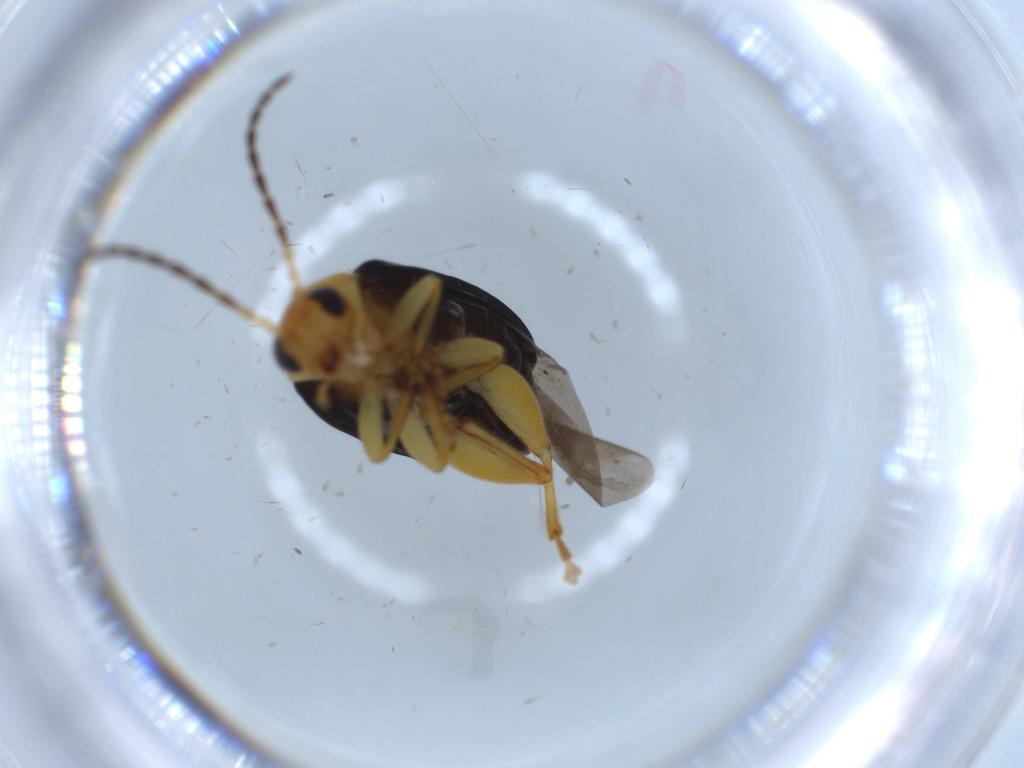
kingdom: Animalia
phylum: Arthropoda
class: Insecta
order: Coleoptera
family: Chrysomelidae
